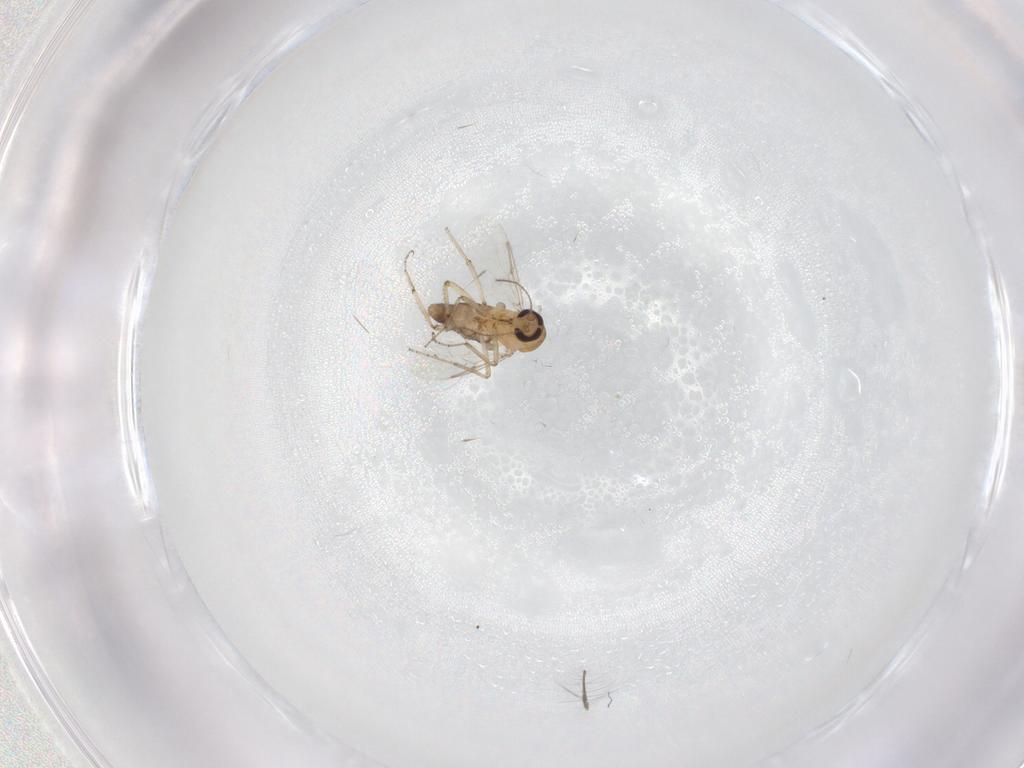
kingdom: Animalia
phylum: Arthropoda
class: Insecta
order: Diptera
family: Ceratopogonidae
